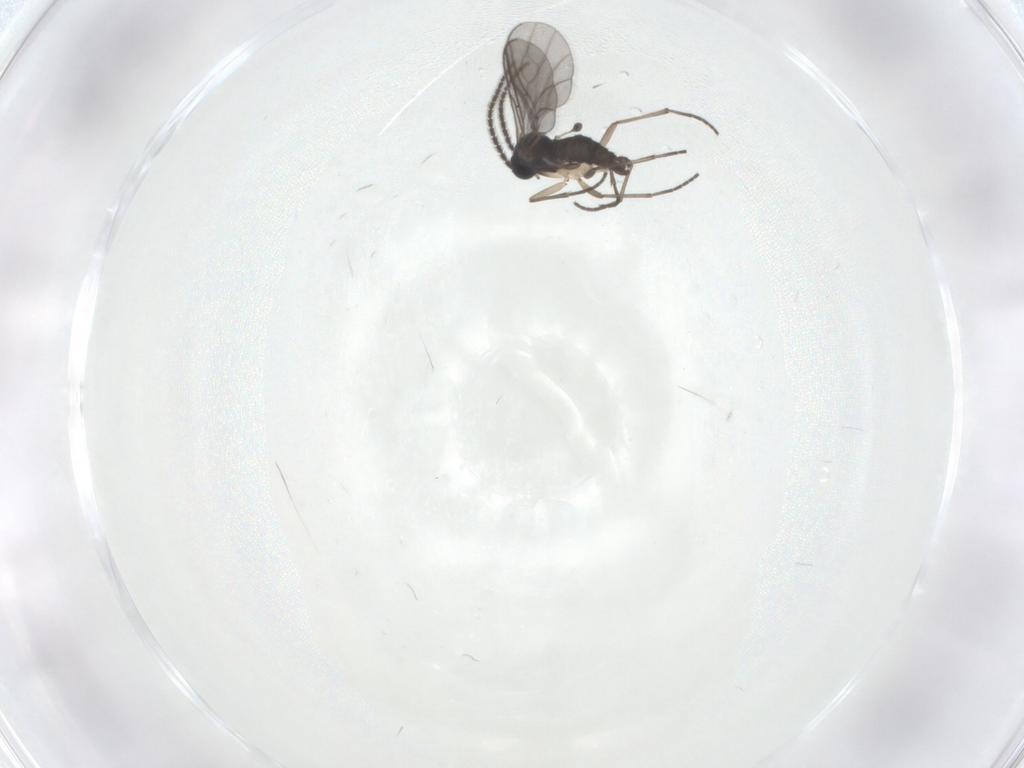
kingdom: Animalia
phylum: Arthropoda
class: Insecta
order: Diptera
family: Sciaridae
